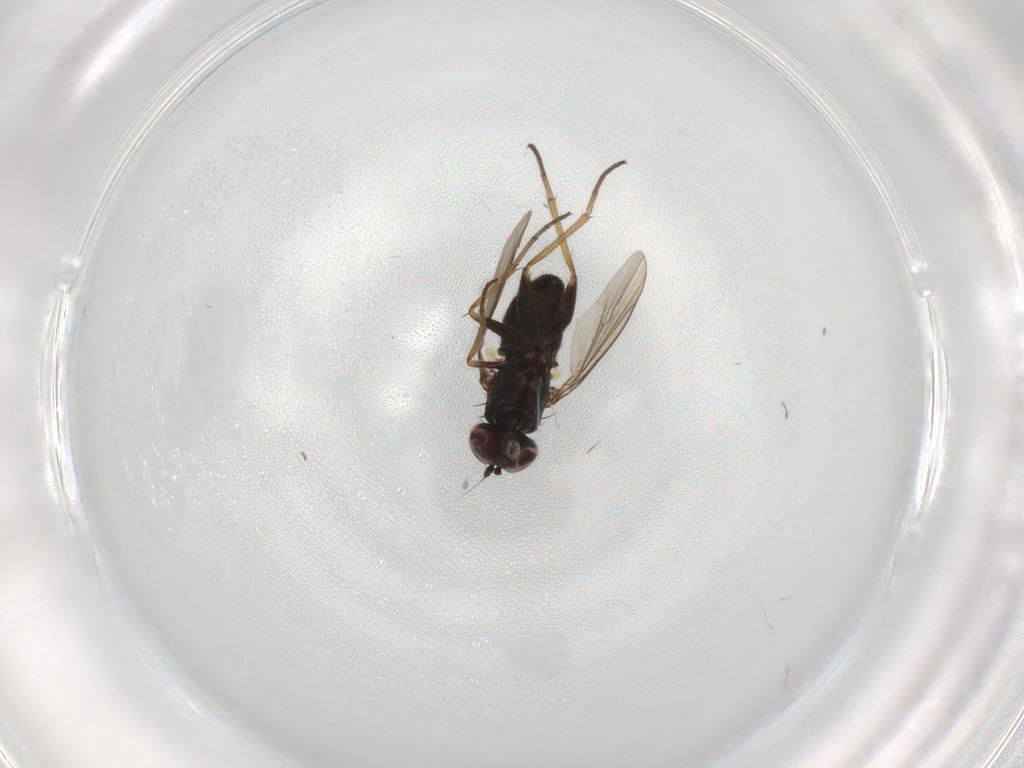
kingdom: Animalia
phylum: Arthropoda
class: Insecta
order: Diptera
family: Dolichopodidae
